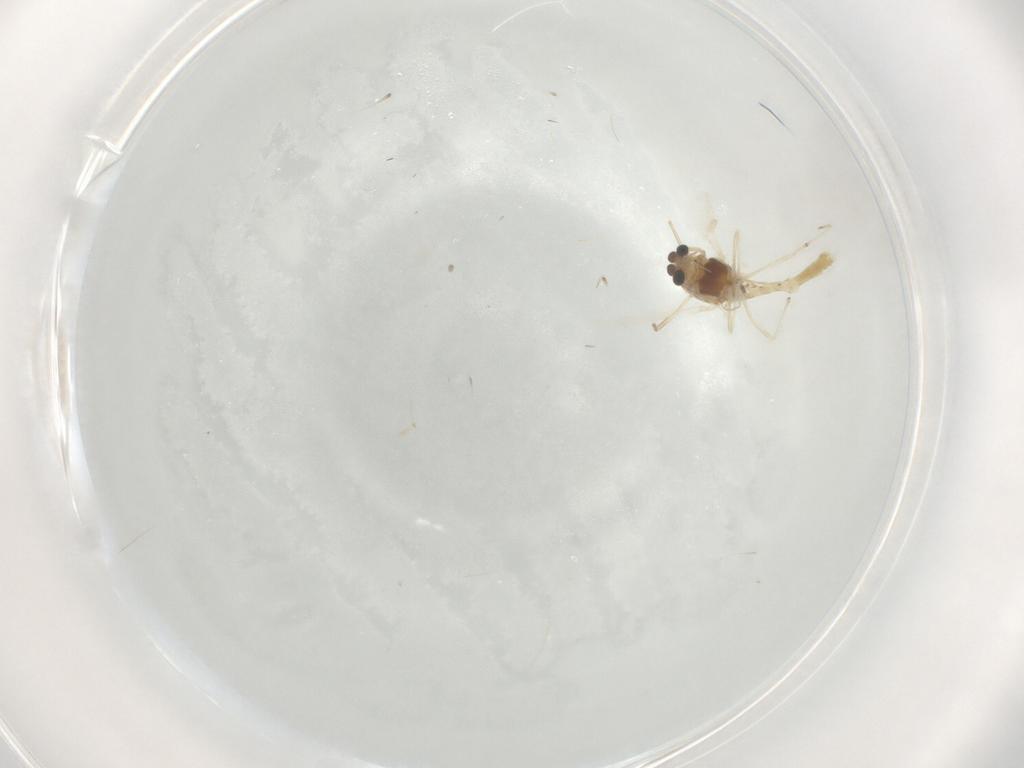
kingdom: Animalia
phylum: Arthropoda
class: Insecta
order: Diptera
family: Chironomidae
